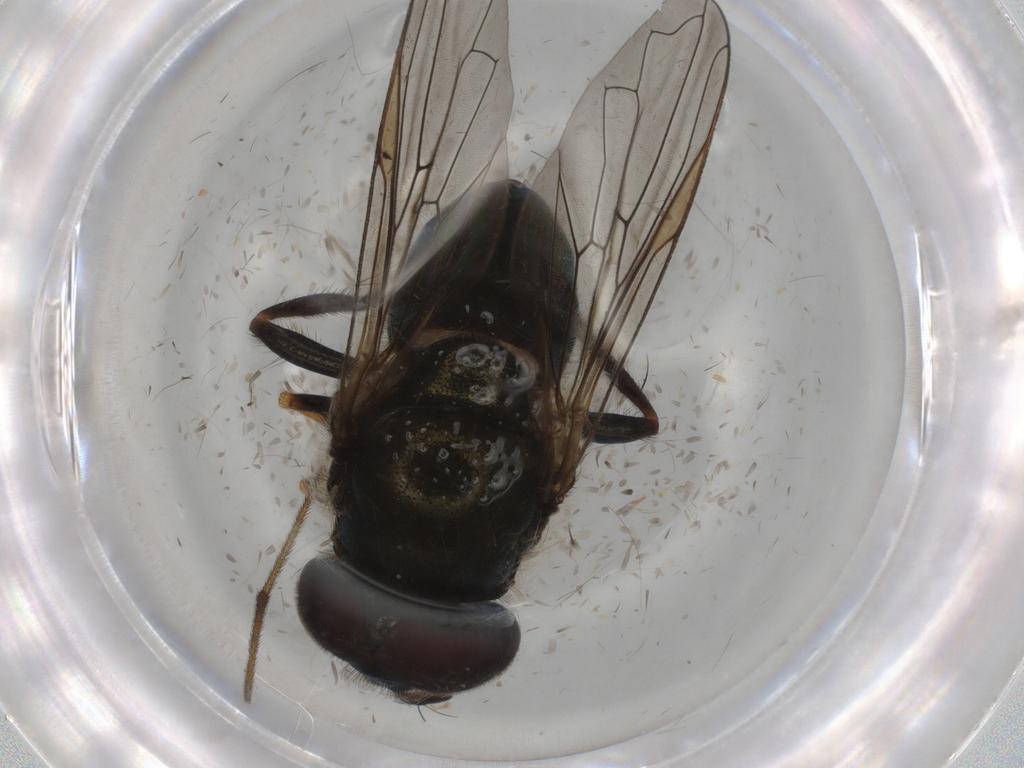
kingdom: Animalia
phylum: Arthropoda
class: Insecta
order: Diptera
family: Syrphidae
